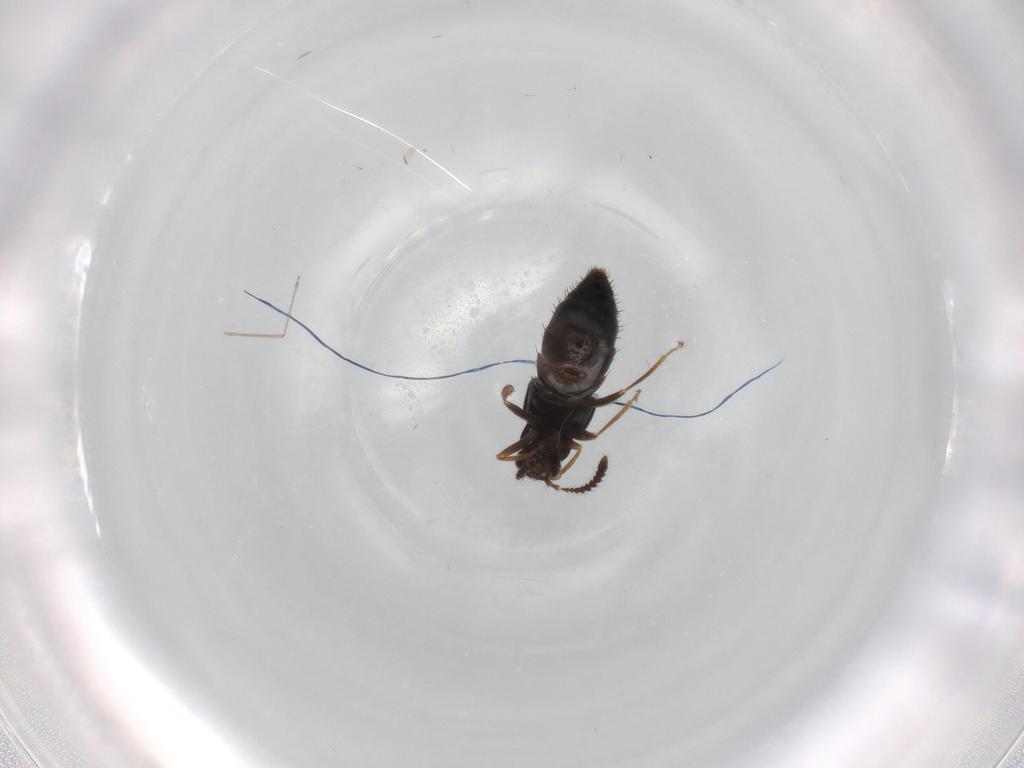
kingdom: Animalia
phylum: Arthropoda
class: Insecta
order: Coleoptera
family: Staphylinidae
